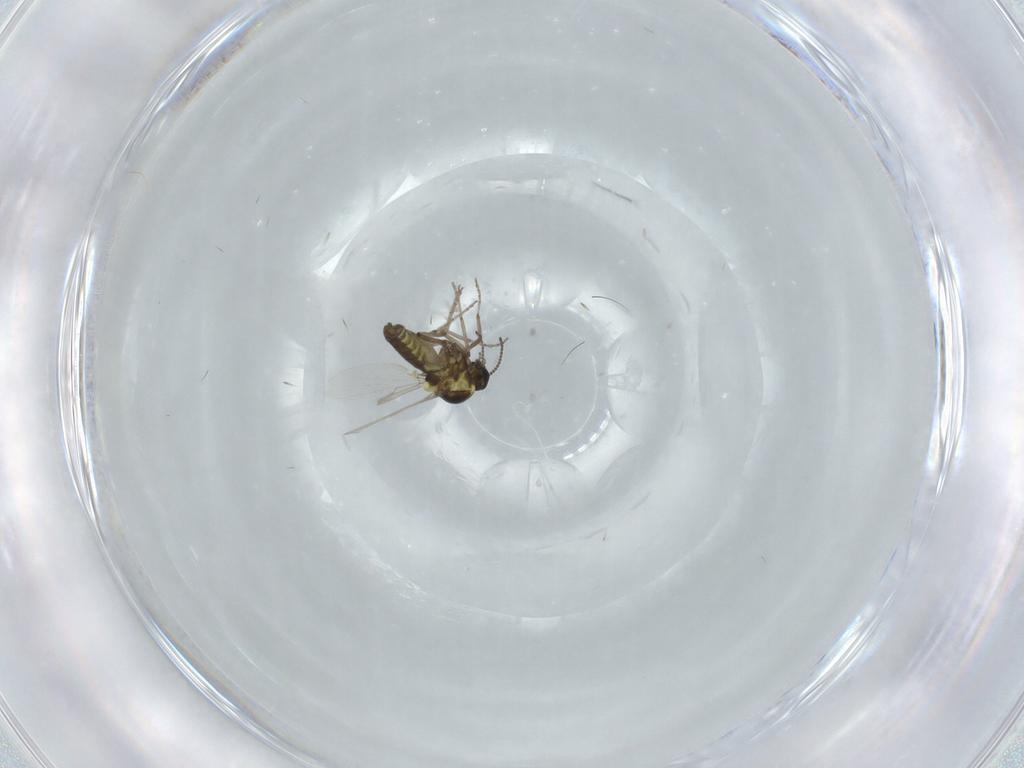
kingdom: Animalia
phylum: Arthropoda
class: Insecta
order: Diptera
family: Ceratopogonidae
